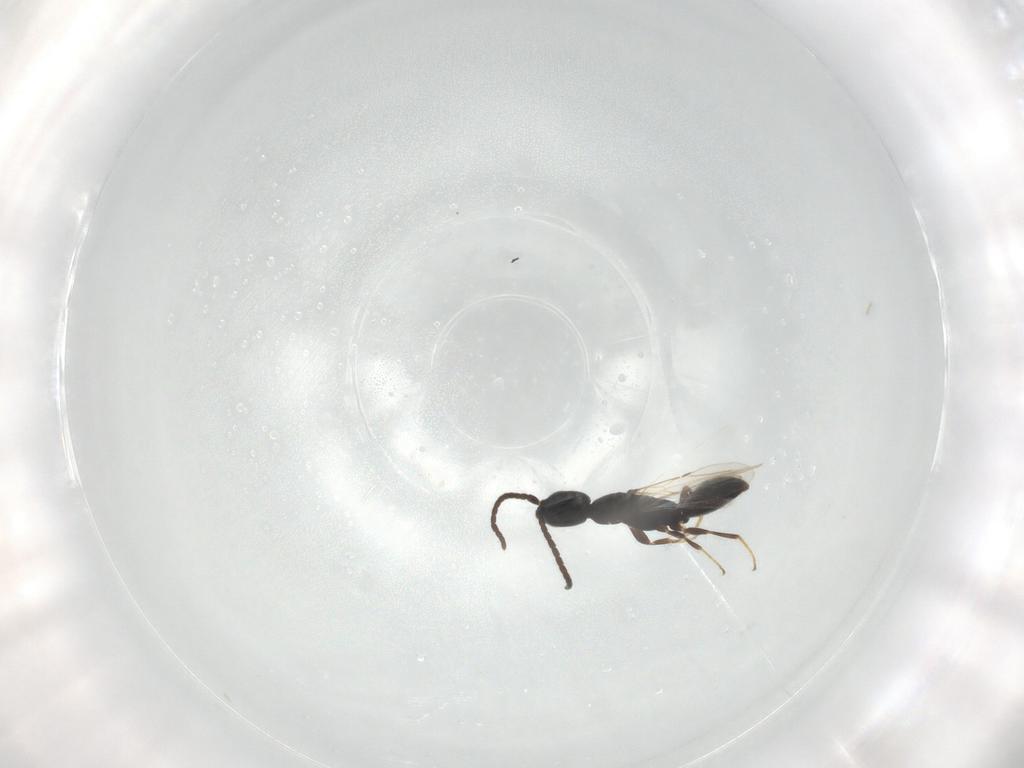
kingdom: Animalia
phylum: Arthropoda
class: Insecta
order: Hymenoptera
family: Bethylidae
